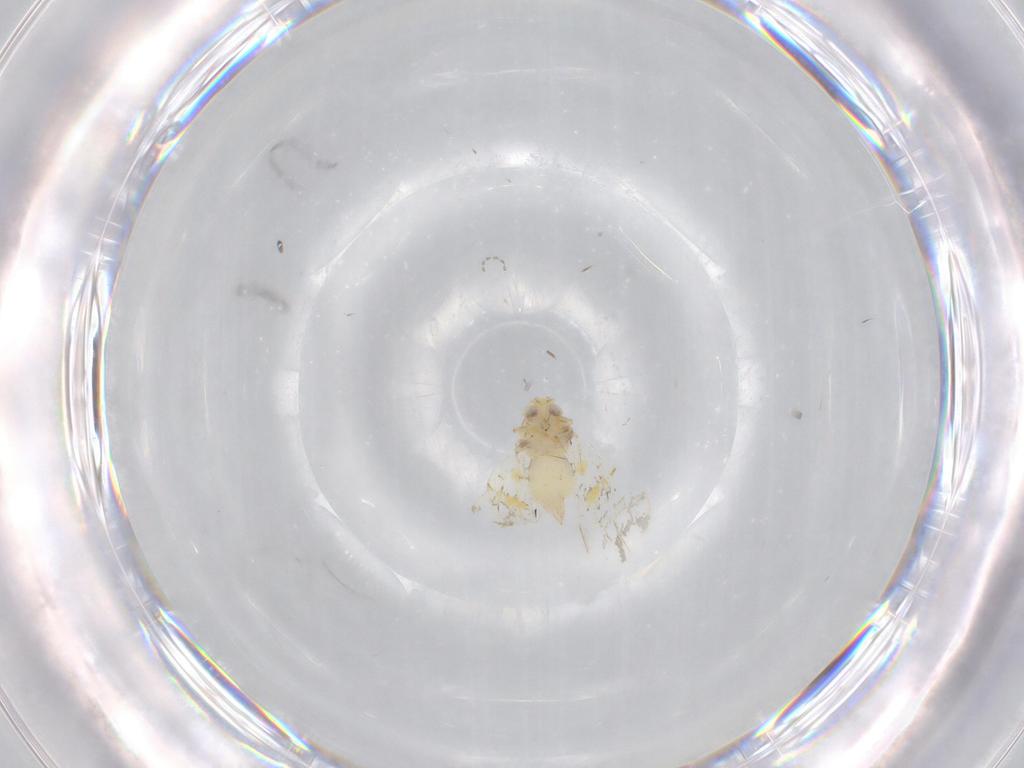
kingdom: Animalia
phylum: Arthropoda
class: Insecta
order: Hemiptera
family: Aleyrodidae
